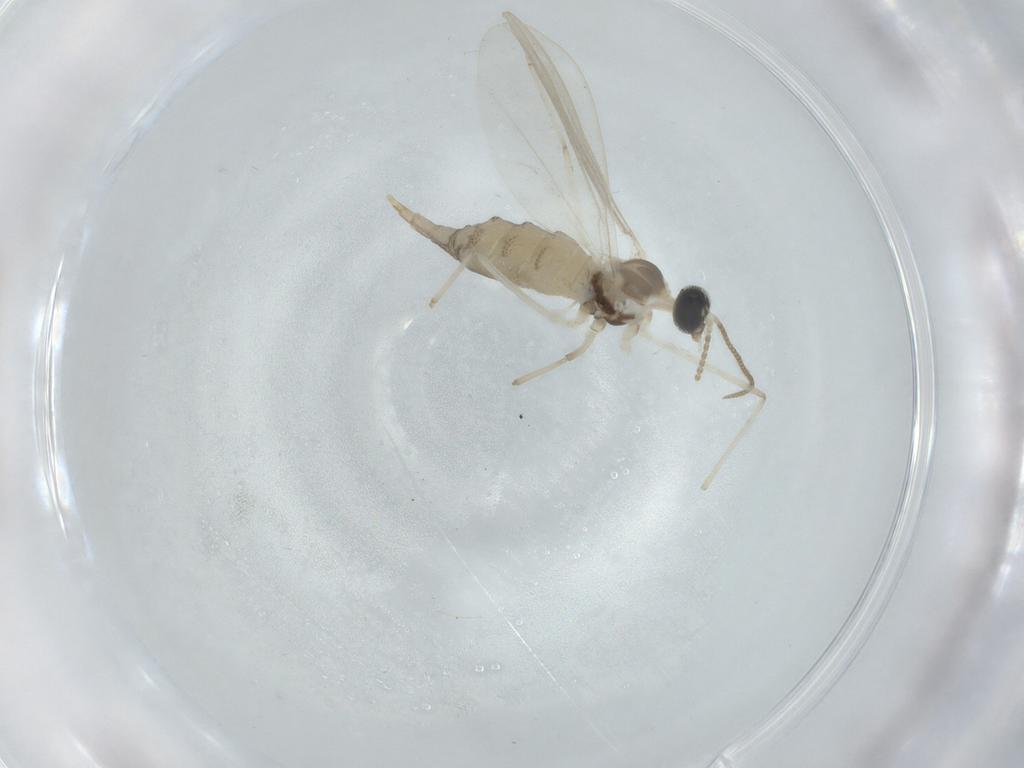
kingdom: Animalia
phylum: Arthropoda
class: Insecta
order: Diptera
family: Cecidomyiidae
